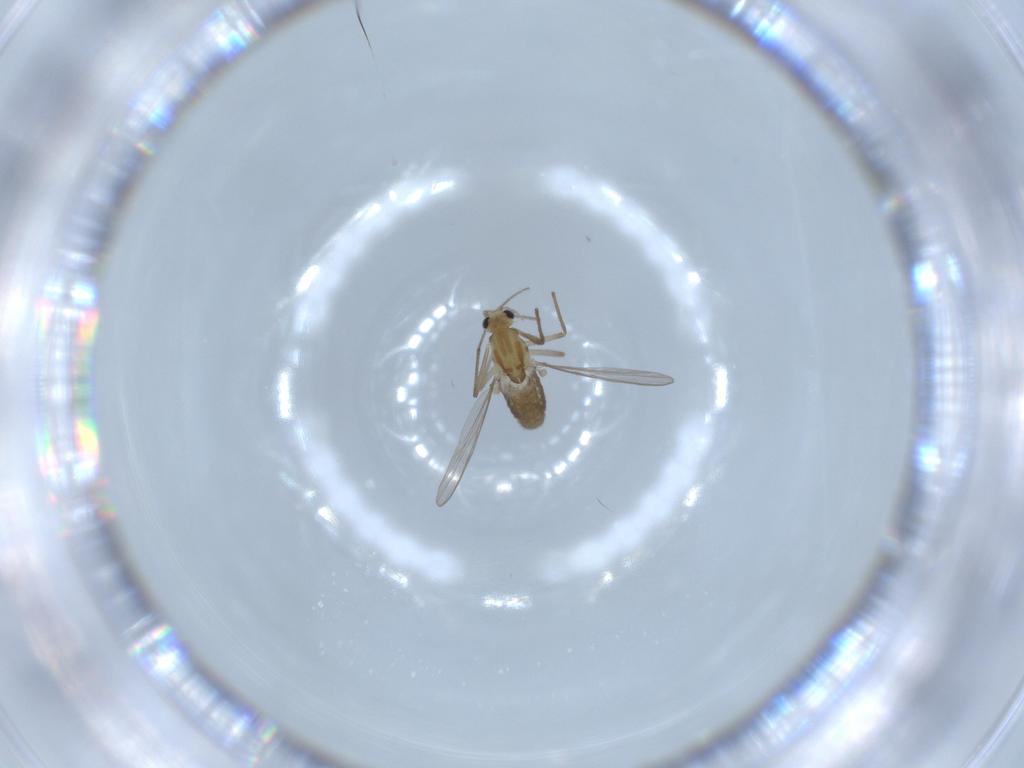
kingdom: Animalia
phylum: Arthropoda
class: Insecta
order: Diptera
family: Chironomidae
